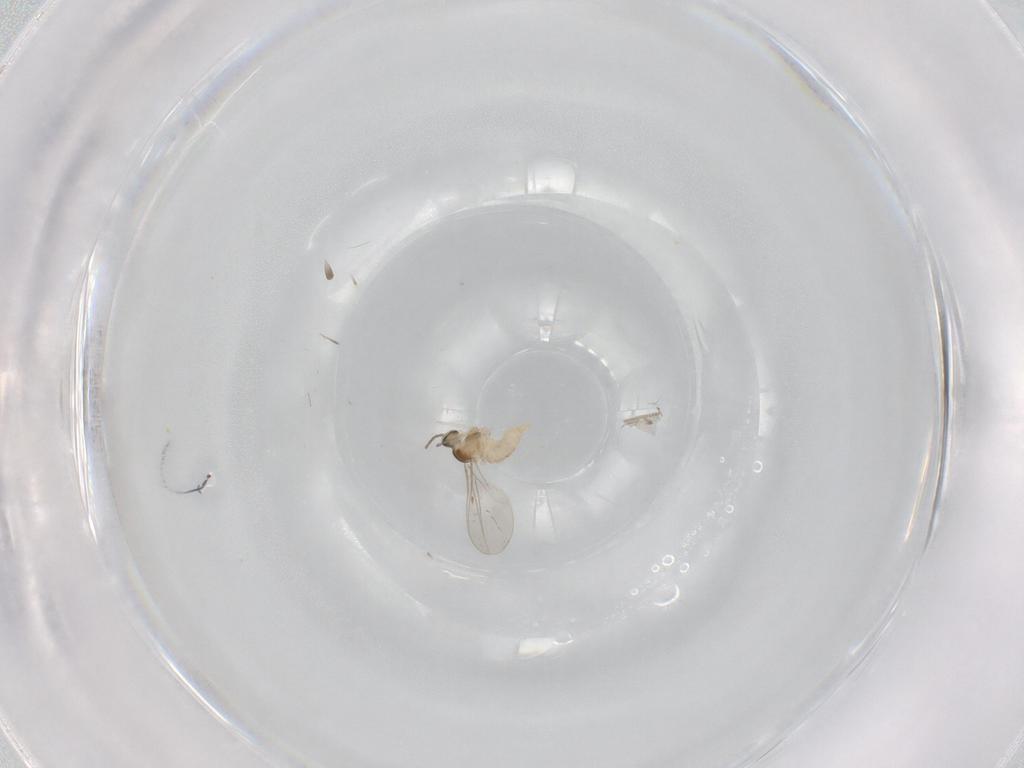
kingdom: Animalia
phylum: Arthropoda
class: Insecta
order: Diptera
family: Cecidomyiidae
